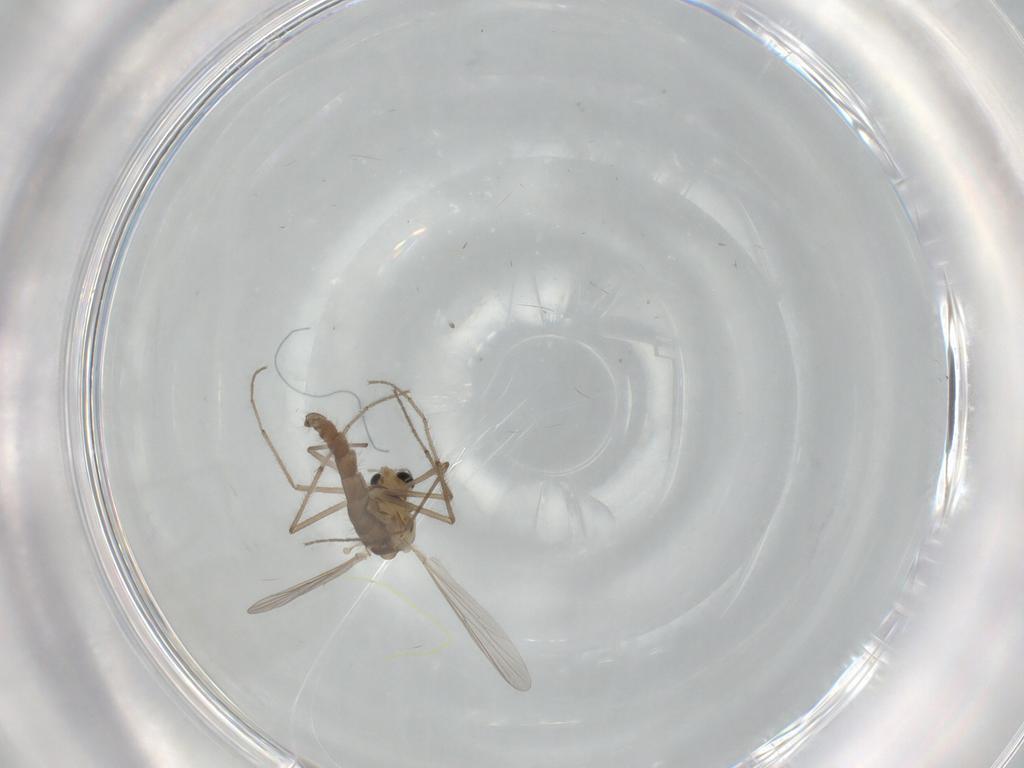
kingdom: Animalia
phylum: Arthropoda
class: Insecta
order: Diptera
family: Chironomidae
